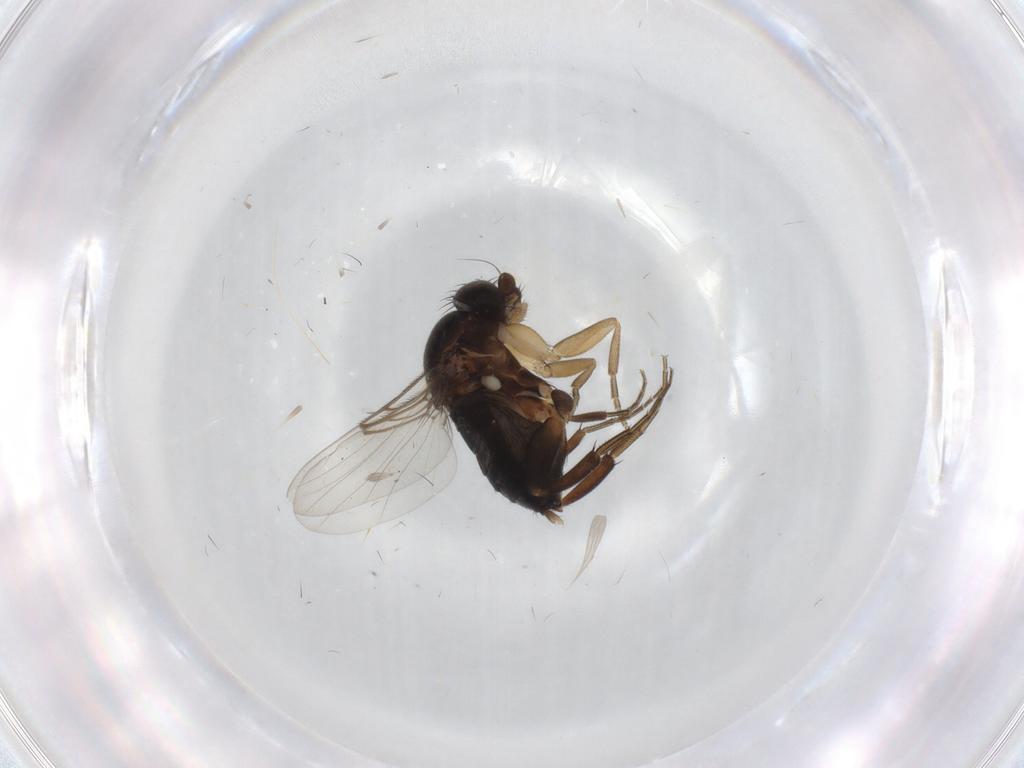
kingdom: Animalia
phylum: Arthropoda
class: Insecta
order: Diptera
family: Phoridae
